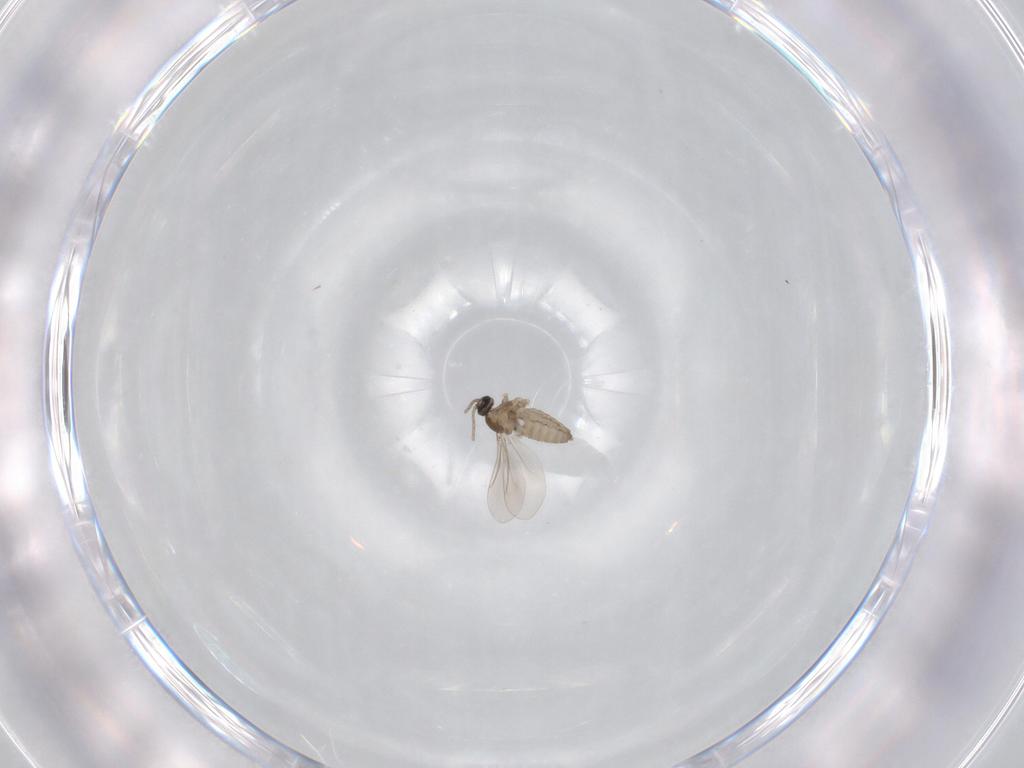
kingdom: Animalia
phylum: Arthropoda
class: Insecta
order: Diptera
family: Cecidomyiidae
